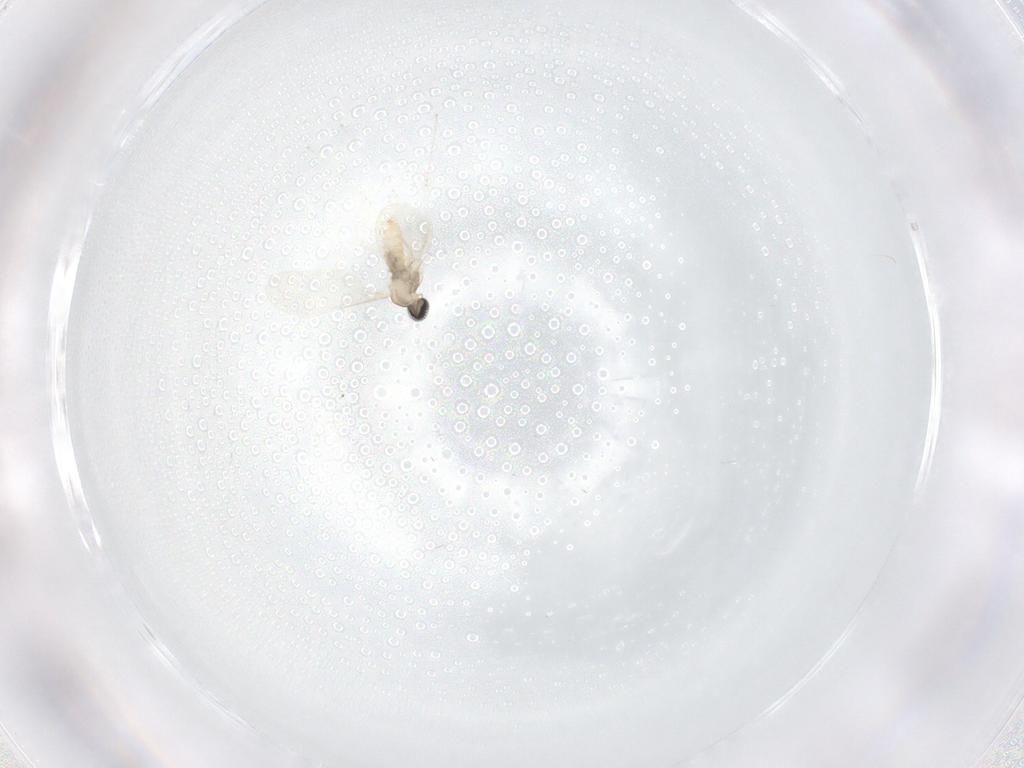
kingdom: Animalia
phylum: Arthropoda
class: Insecta
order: Diptera
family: Cecidomyiidae
